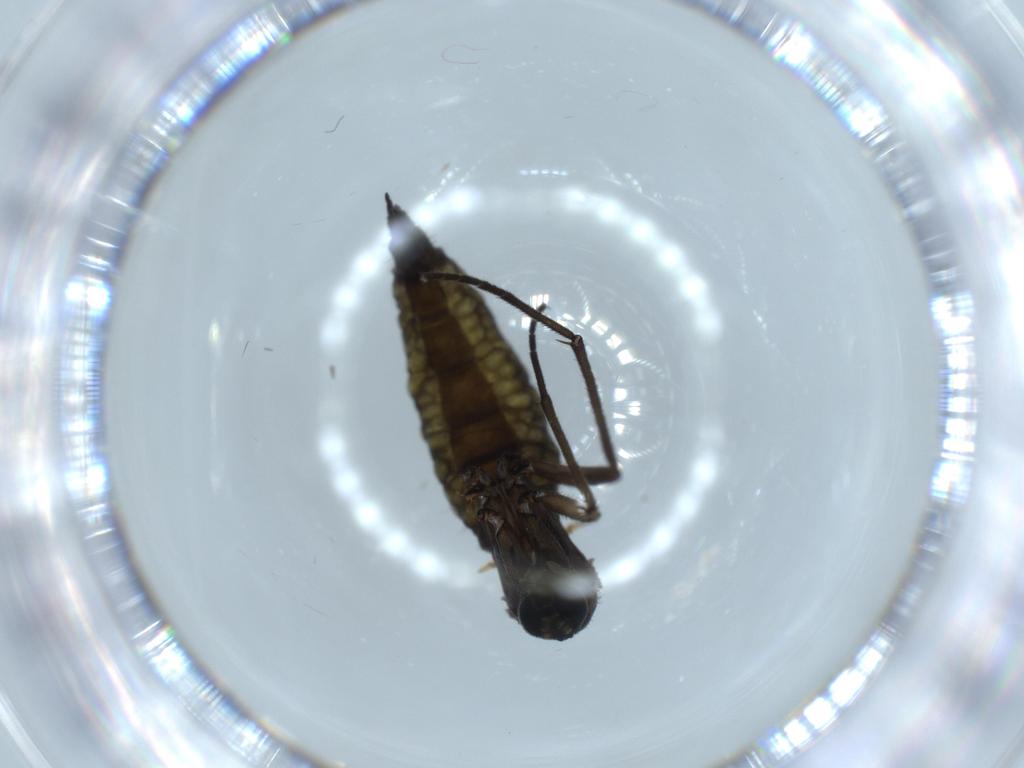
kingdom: Animalia
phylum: Arthropoda
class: Insecta
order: Diptera
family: Sciaridae
